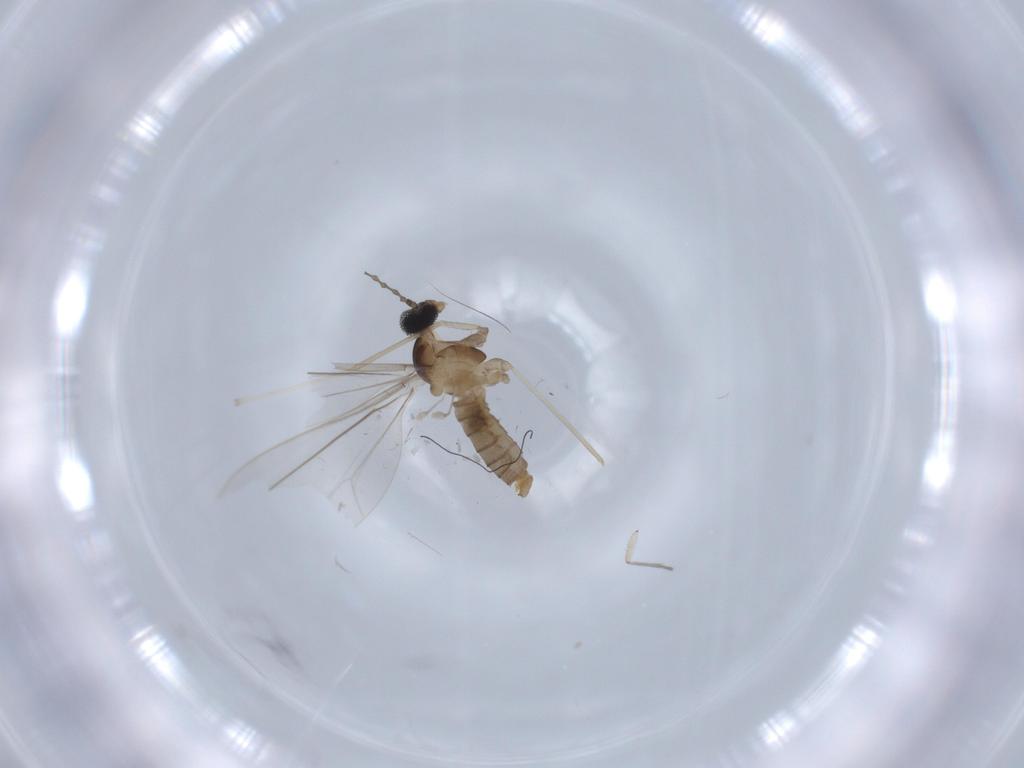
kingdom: Animalia
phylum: Arthropoda
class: Insecta
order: Diptera
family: Cecidomyiidae
